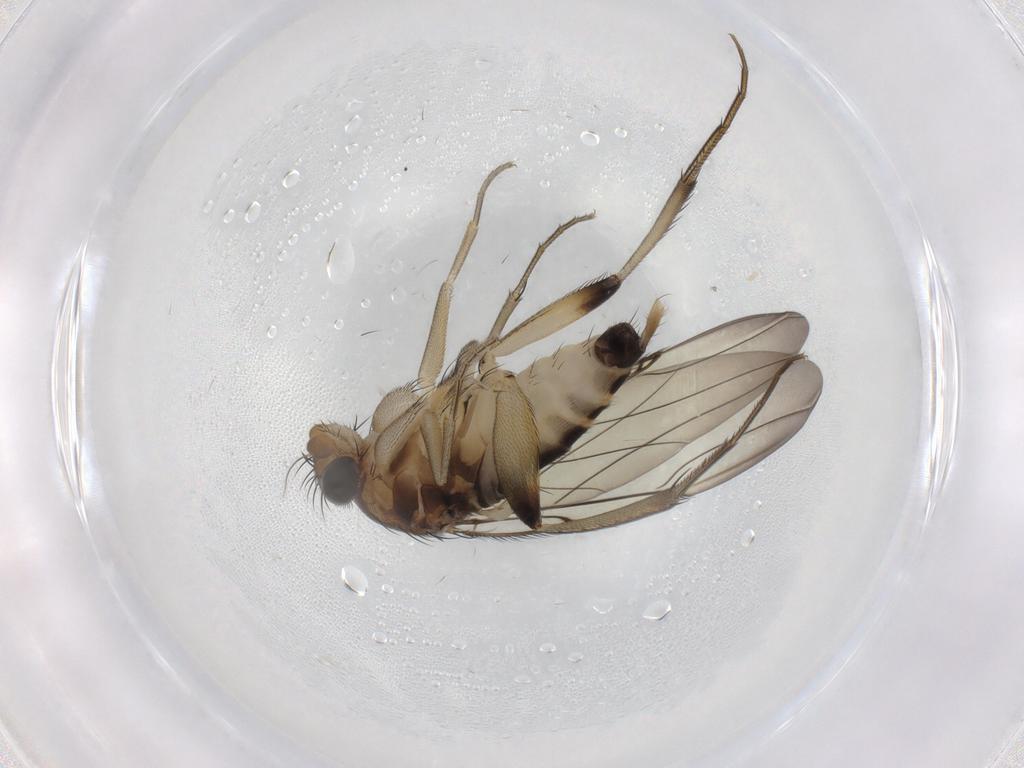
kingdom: Animalia
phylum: Arthropoda
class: Insecta
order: Diptera
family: Phoridae
